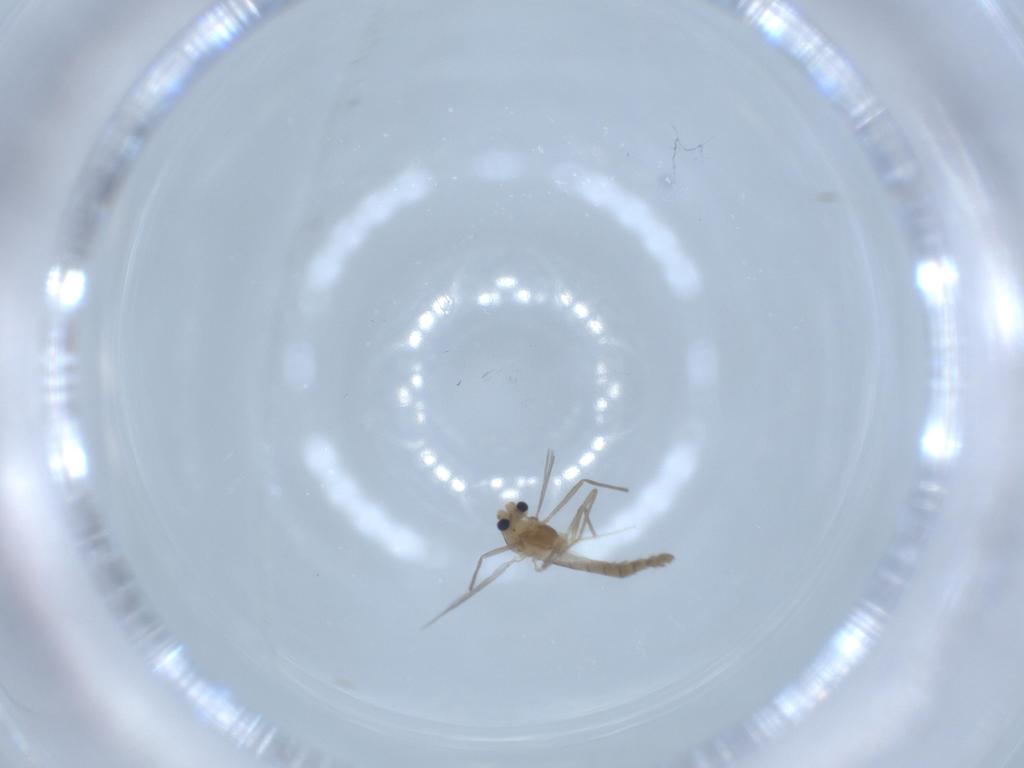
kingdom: Animalia
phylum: Arthropoda
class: Insecta
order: Diptera
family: Chironomidae
